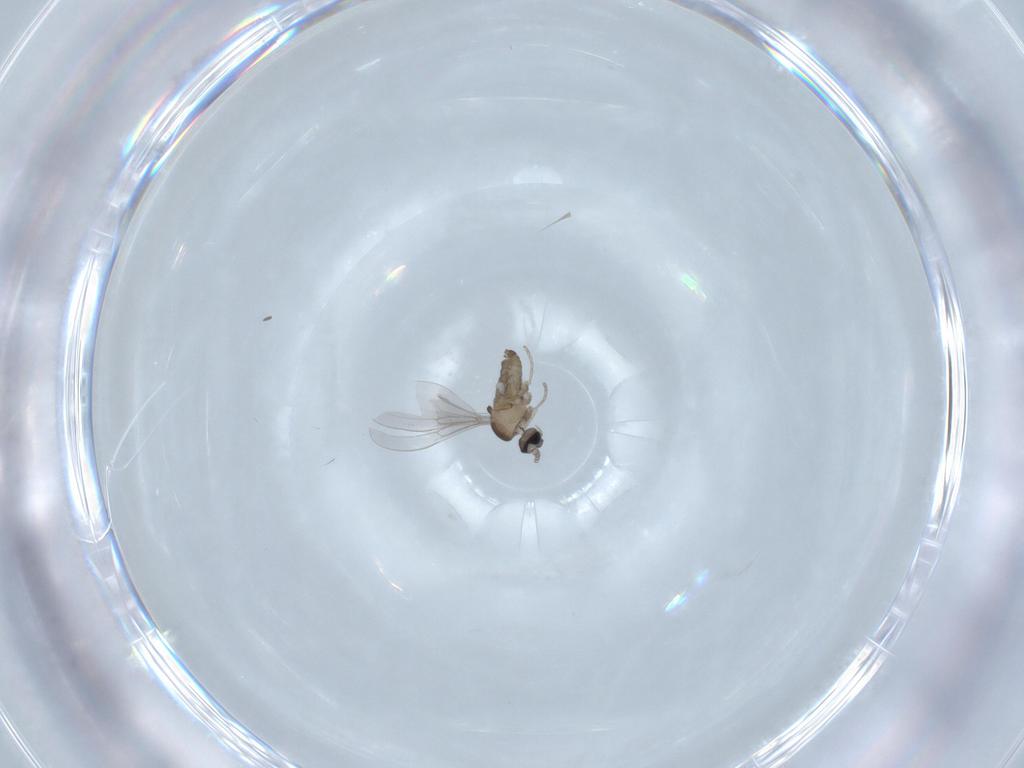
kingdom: Animalia
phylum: Arthropoda
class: Insecta
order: Diptera
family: Cecidomyiidae
